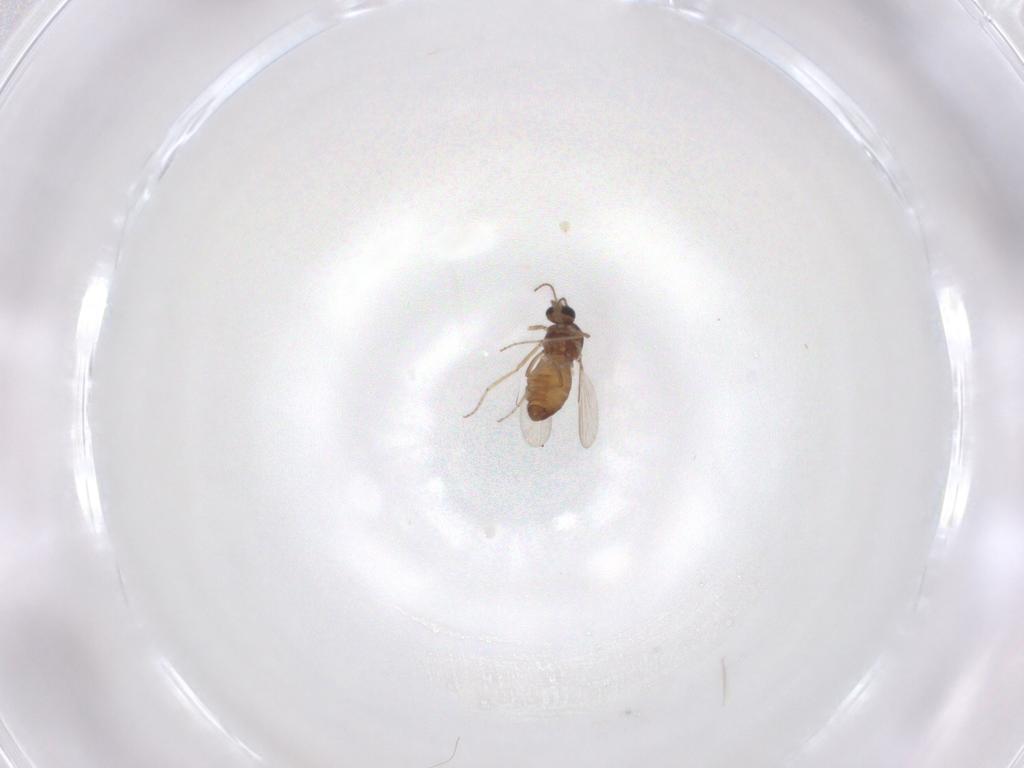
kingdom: Animalia
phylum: Arthropoda
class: Insecta
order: Diptera
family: Ceratopogonidae
